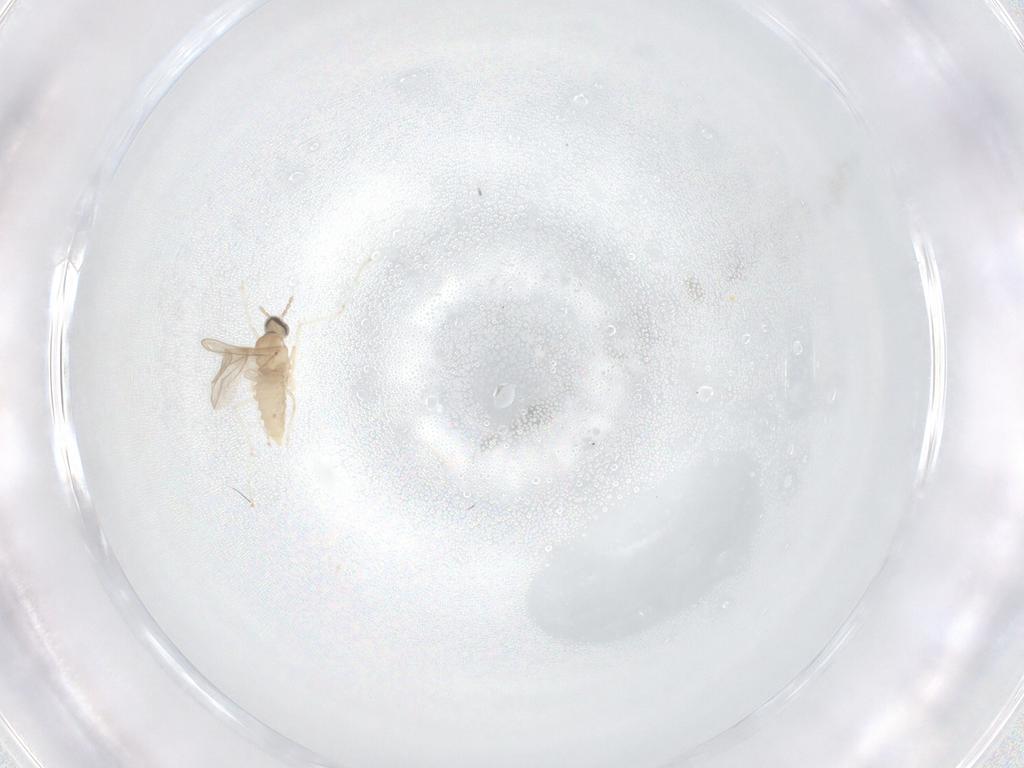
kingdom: Animalia
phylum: Arthropoda
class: Insecta
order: Diptera
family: Cecidomyiidae
